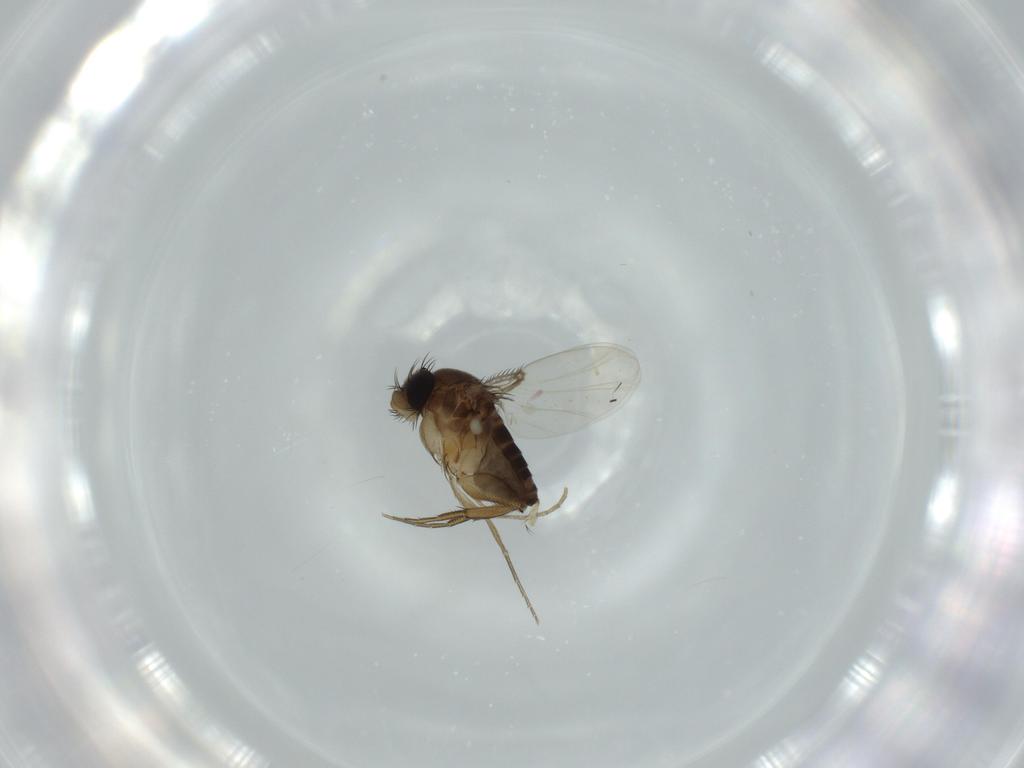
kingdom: Animalia
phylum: Arthropoda
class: Insecta
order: Diptera
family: Phoridae
